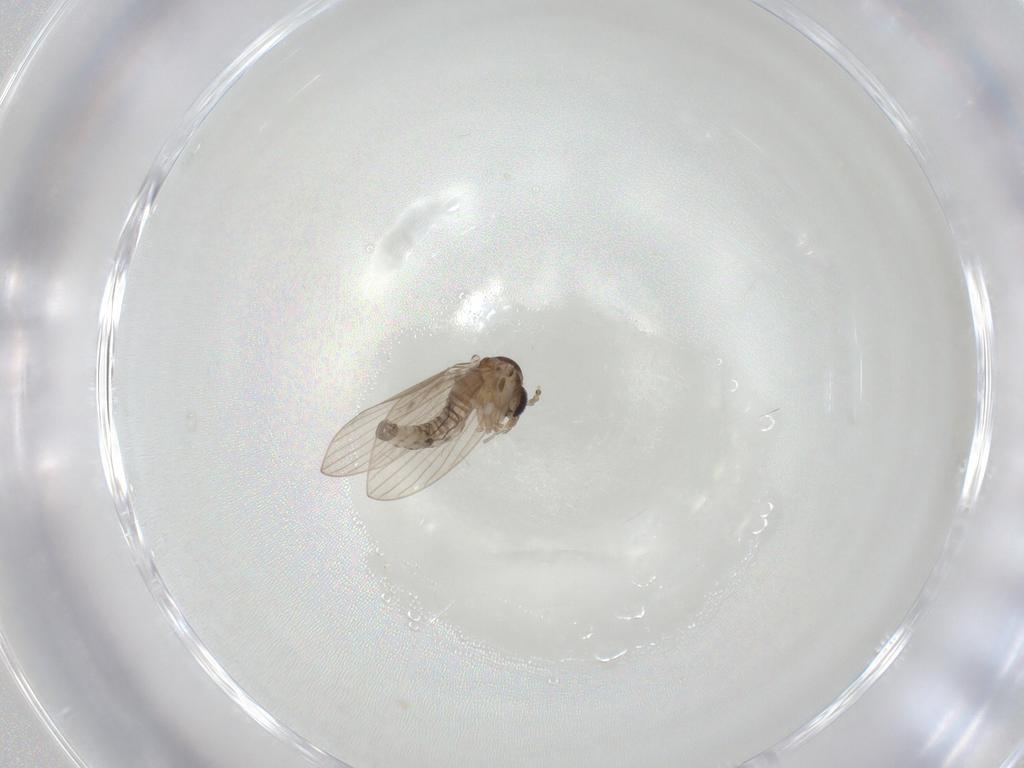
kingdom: Animalia
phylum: Arthropoda
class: Insecta
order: Diptera
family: Psychodidae
